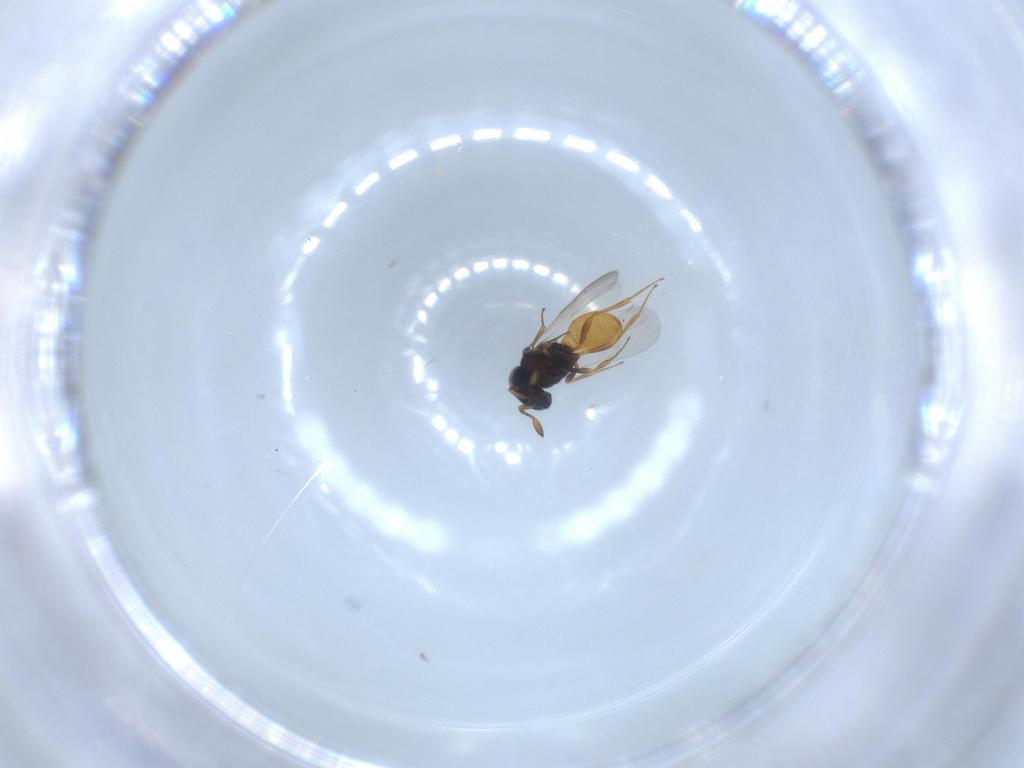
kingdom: Animalia
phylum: Arthropoda
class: Insecta
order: Hymenoptera
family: Scelionidae
